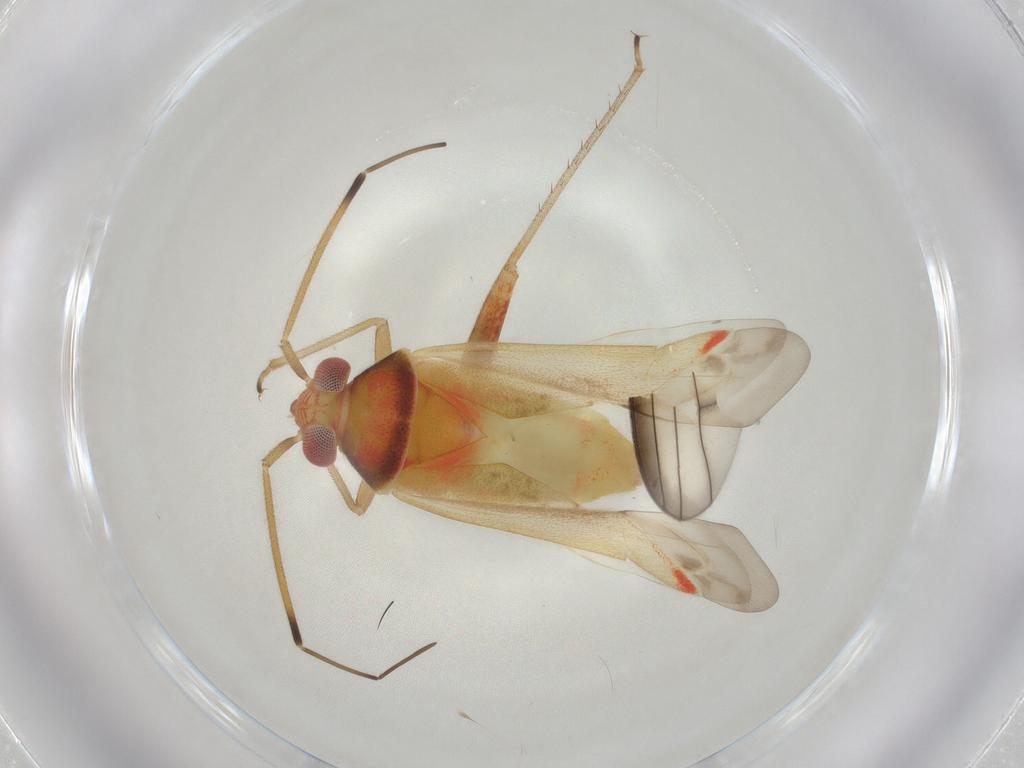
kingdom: Animalia
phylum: Arthropoda
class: Insecta
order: Hemiptera
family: Miridae
